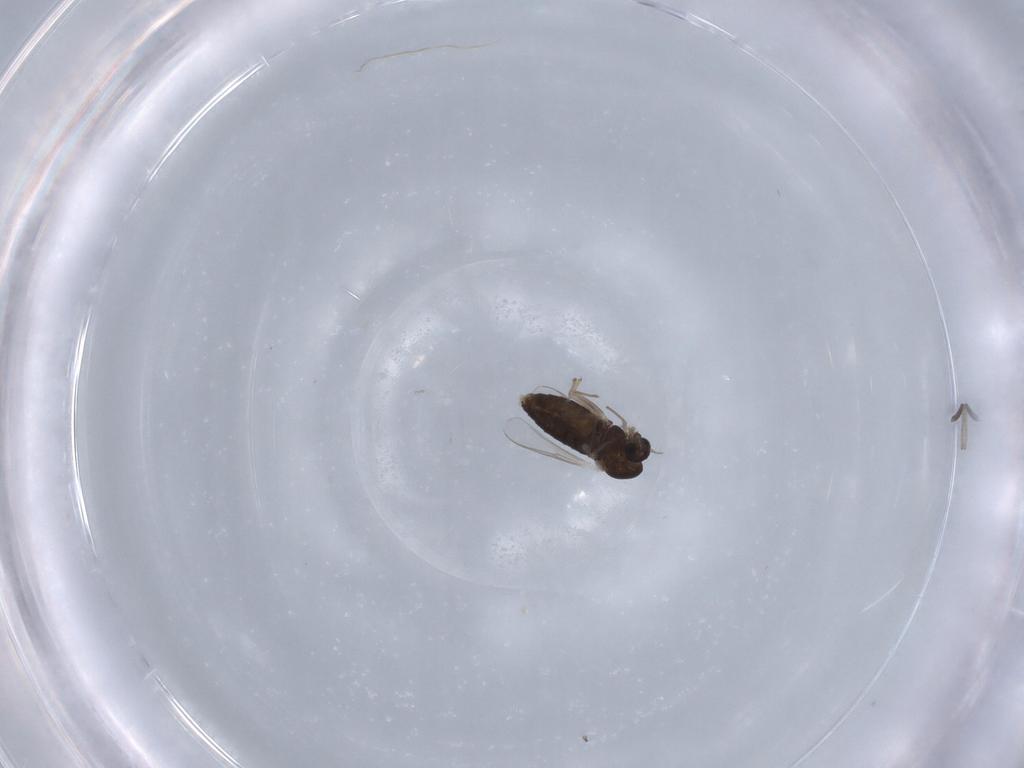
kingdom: Animalia
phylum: Arthropoda
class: Insecta
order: Diptera
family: Chironomidae
